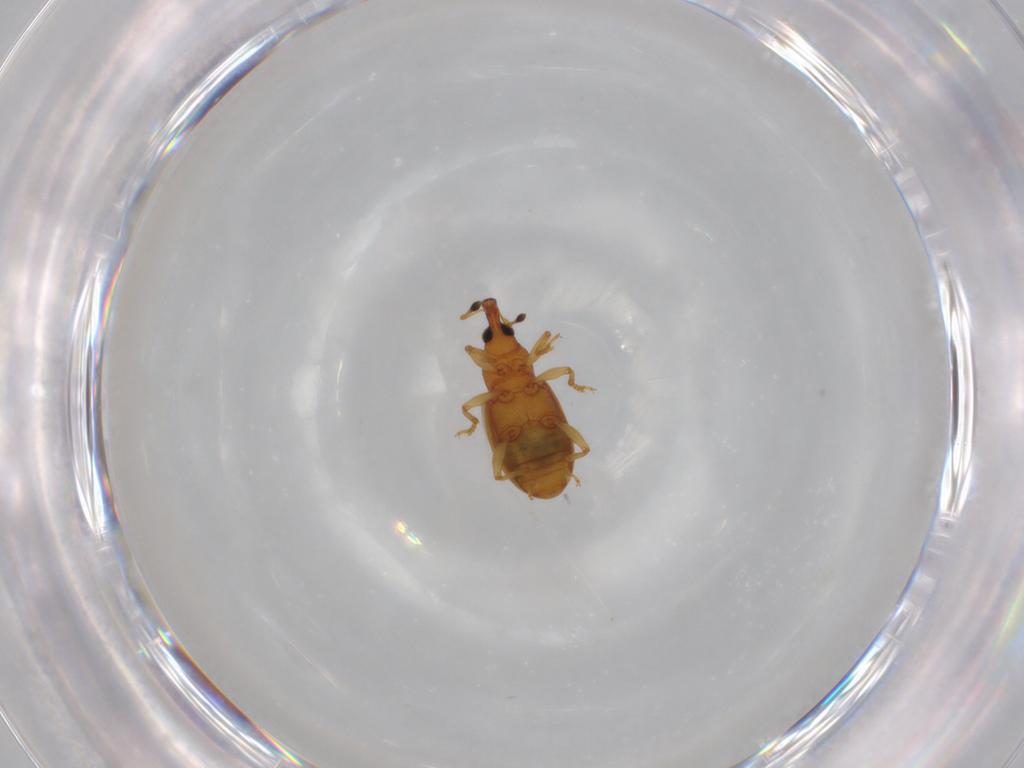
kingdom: Animalia
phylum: Arthropoda
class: Insecta
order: Coleoptera
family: Curculionidae
